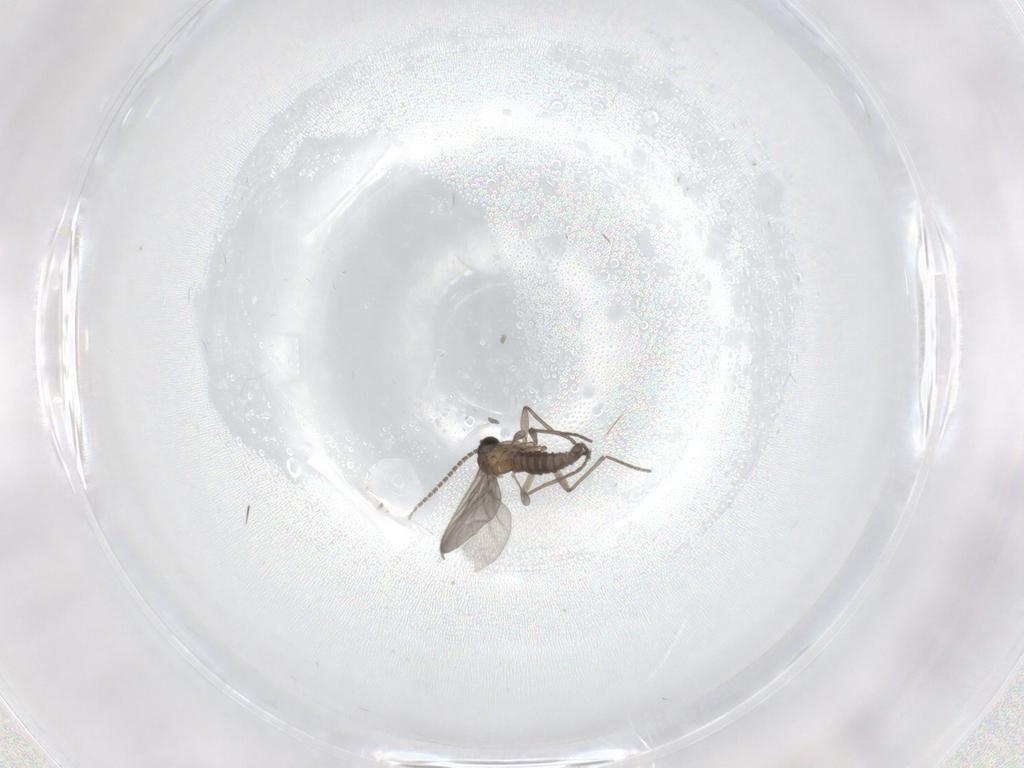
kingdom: Animalia
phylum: Arthropoda
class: Insecta
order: Diptera
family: Sciaridae
